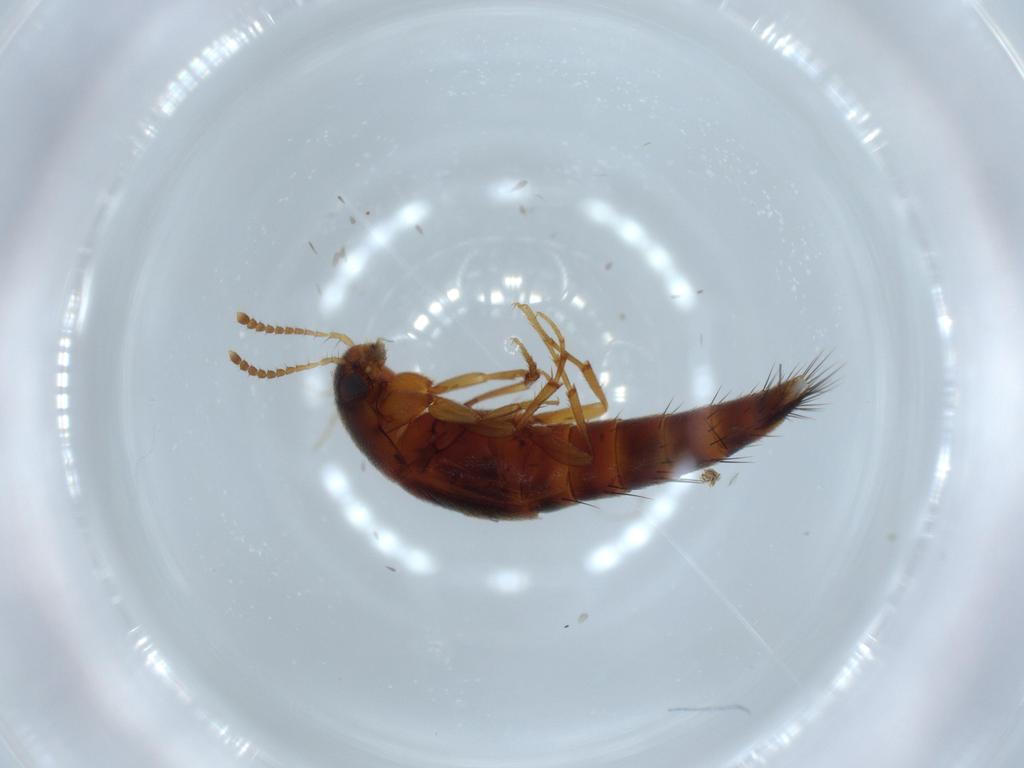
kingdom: Animalia
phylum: Arthropoda
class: Insecta
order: Coleoptera
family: Staphylinidae
